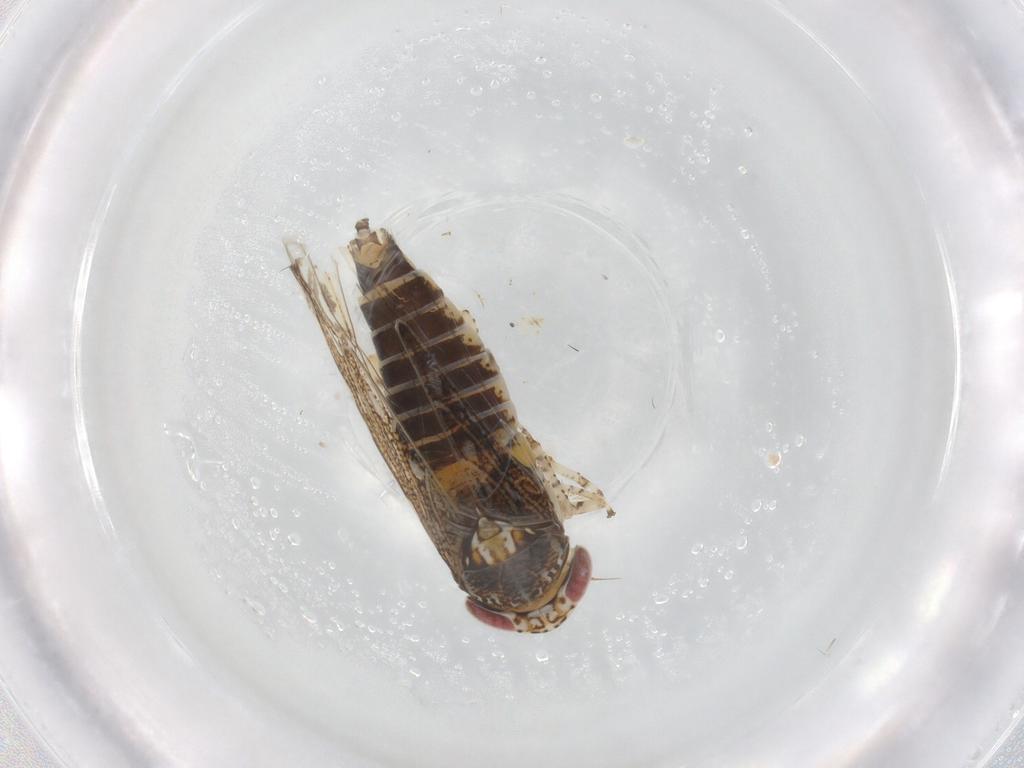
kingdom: Animalia
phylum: Arthropoda
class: Insecta
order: Hemiptera
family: Cicadellidae
